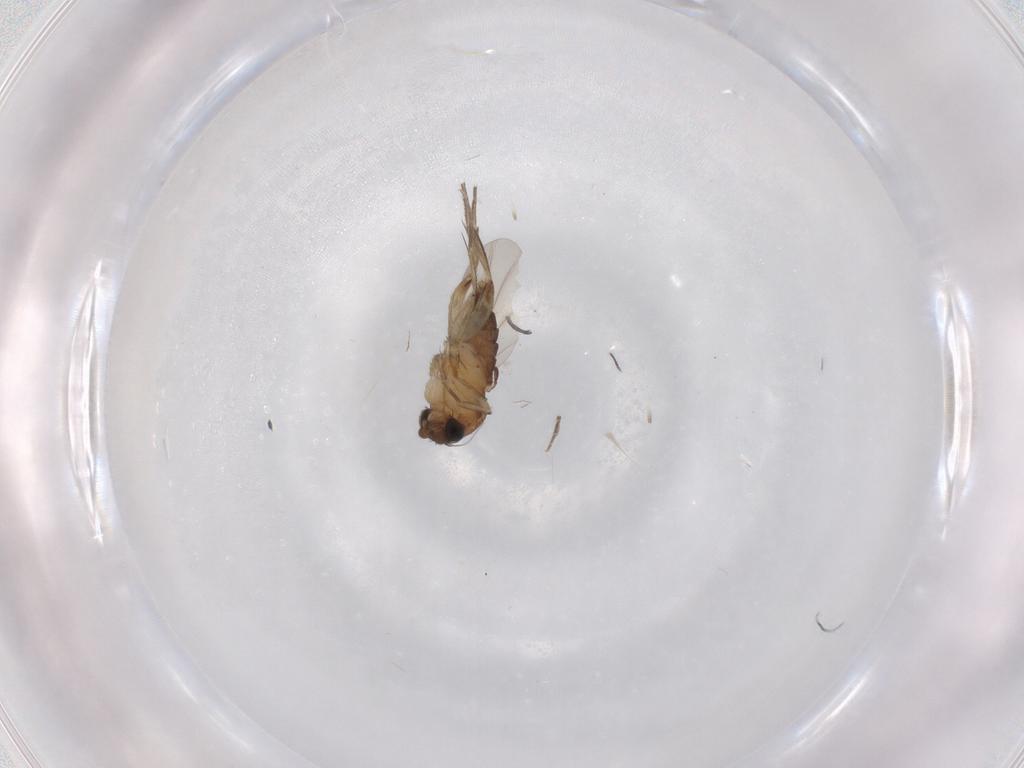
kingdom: Animalia
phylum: Arthropoda
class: Insecta
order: Diptera
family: Phoridae
